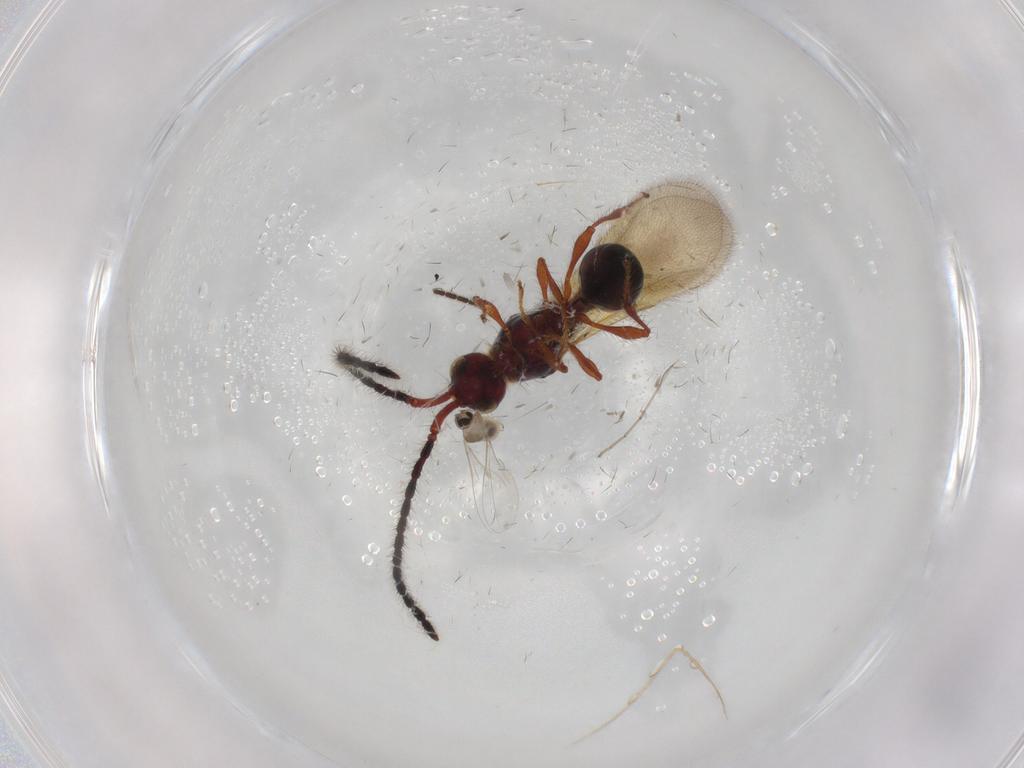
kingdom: Animalia
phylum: Arthropoda
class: Insecta
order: Hymenoptera
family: Diapriidae
